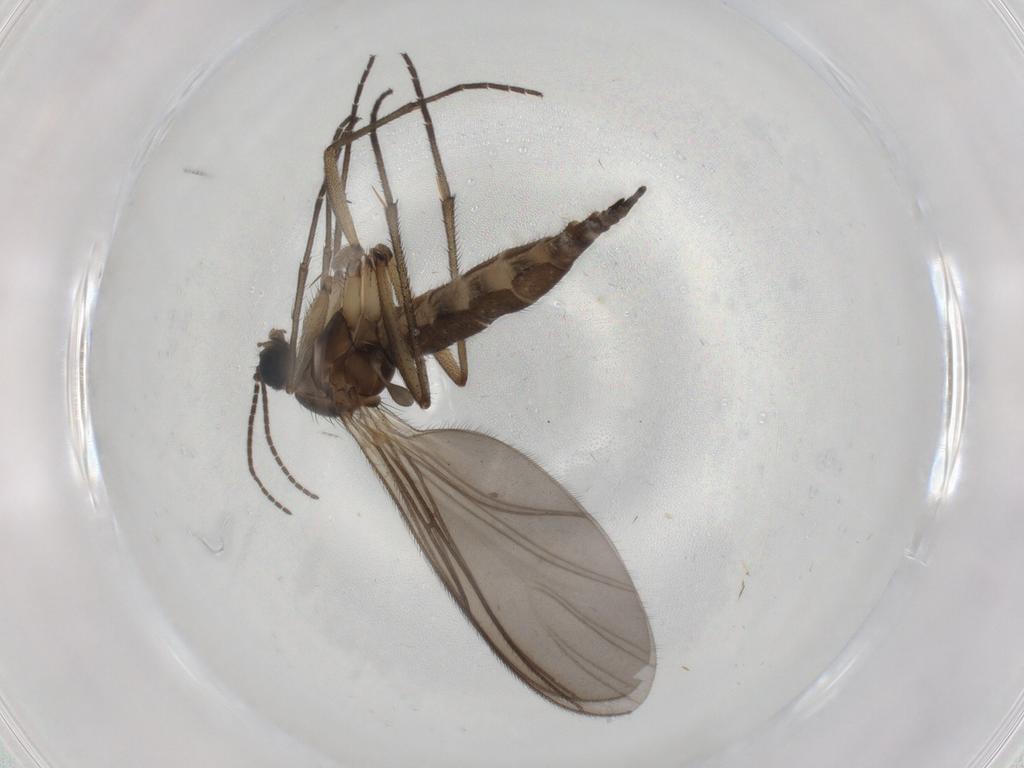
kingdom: Animalia
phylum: Arthropoda
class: Insecta
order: Diptera
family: Sciaridae
